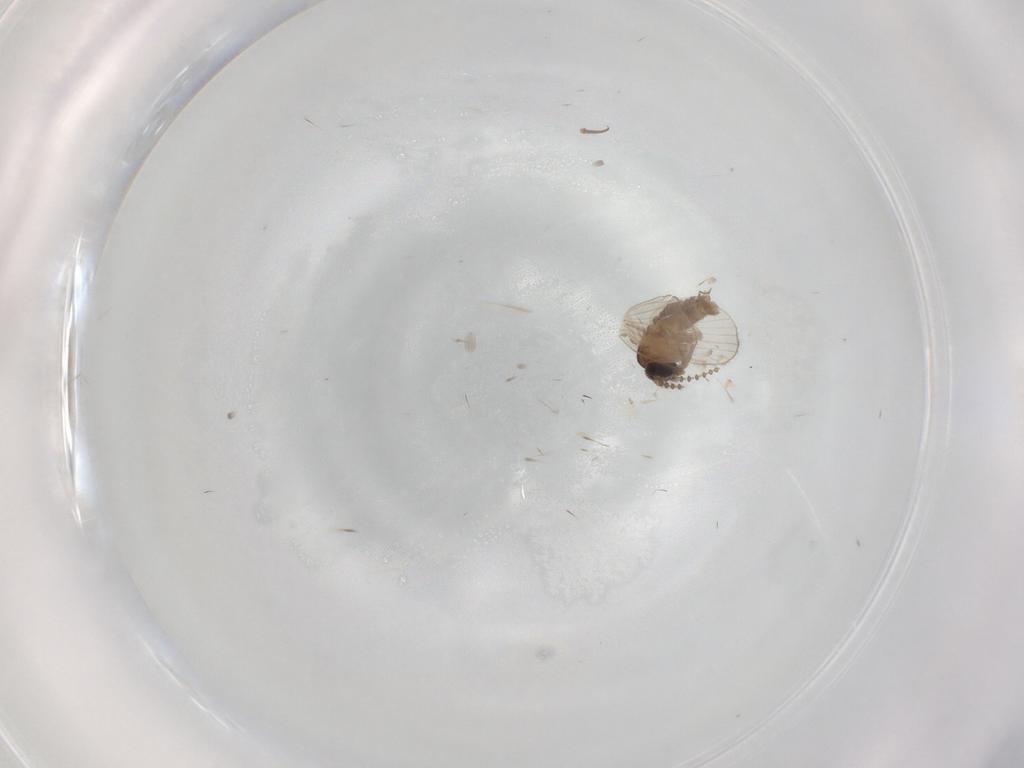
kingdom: Animalia
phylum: Arthropoda
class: Insecta
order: Diptera
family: Psychodidae
